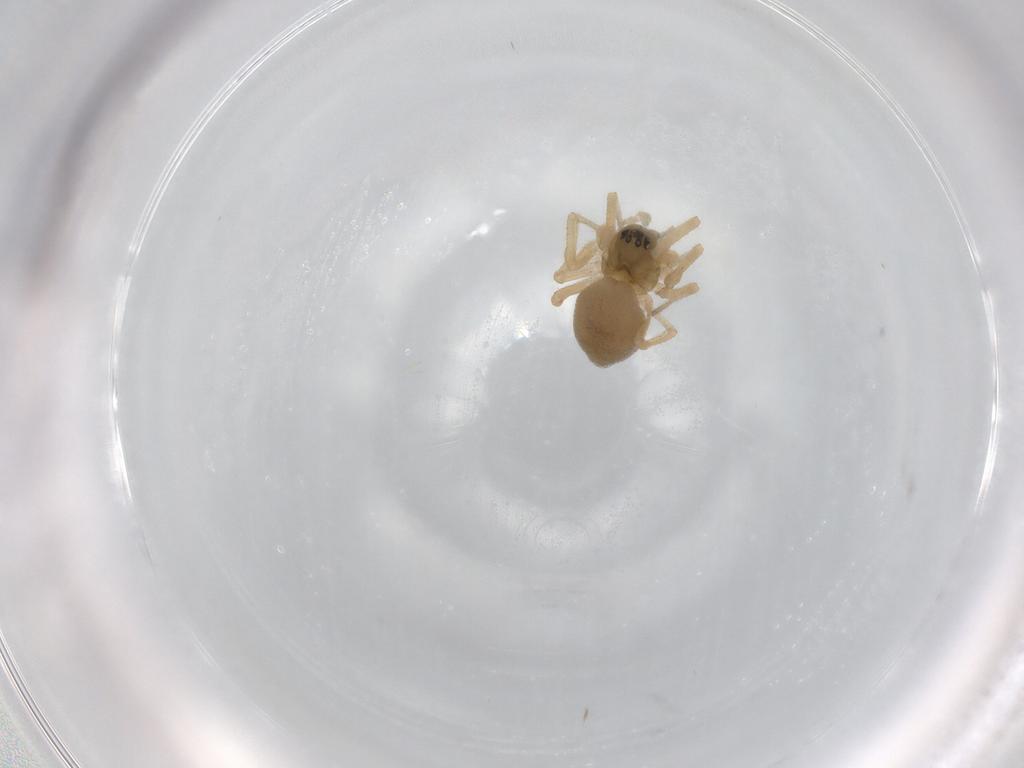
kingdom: Animalia
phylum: Arthropoda
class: Arachnida
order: Araneae
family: Linyphiidae
